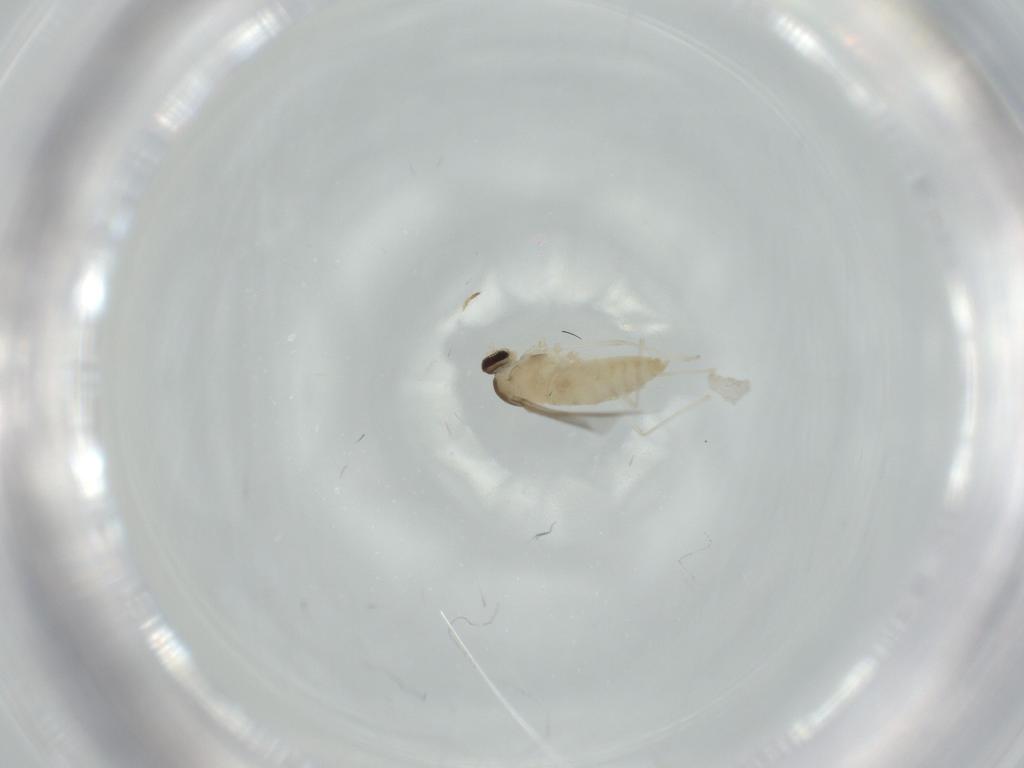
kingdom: Animalia
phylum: Arthropoda
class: Insecta
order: Diptera
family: Cecidomyiidae
